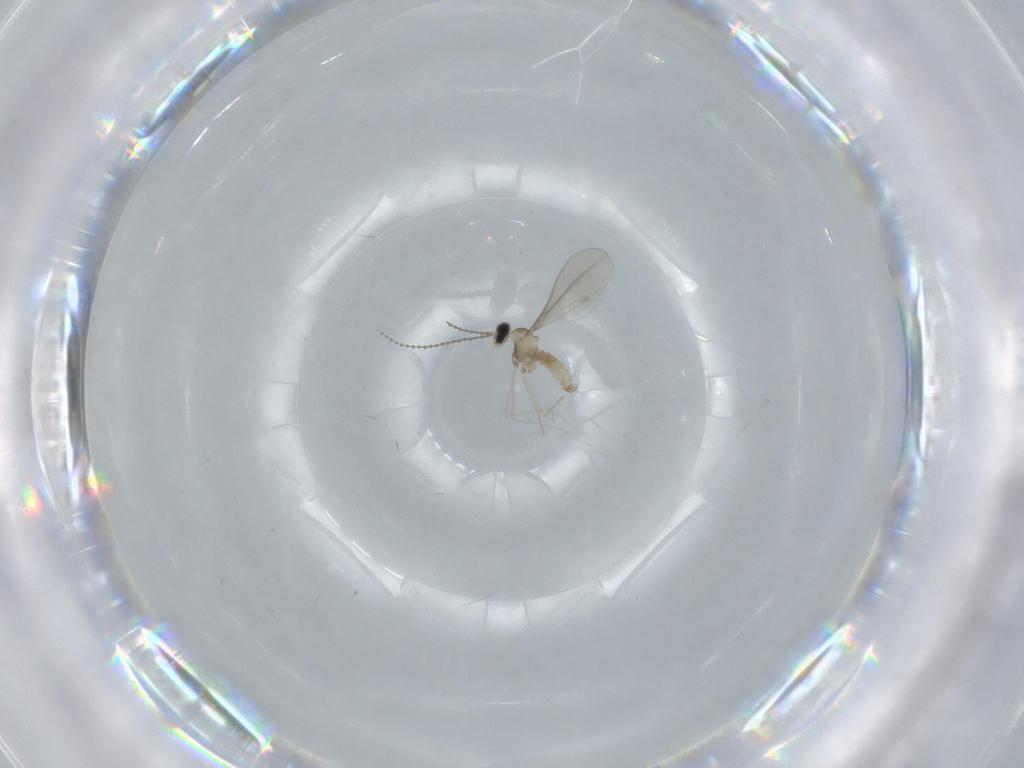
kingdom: Animalia
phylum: Arthropoda
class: Insecta
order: Diptera
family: Cecidomyiidae
